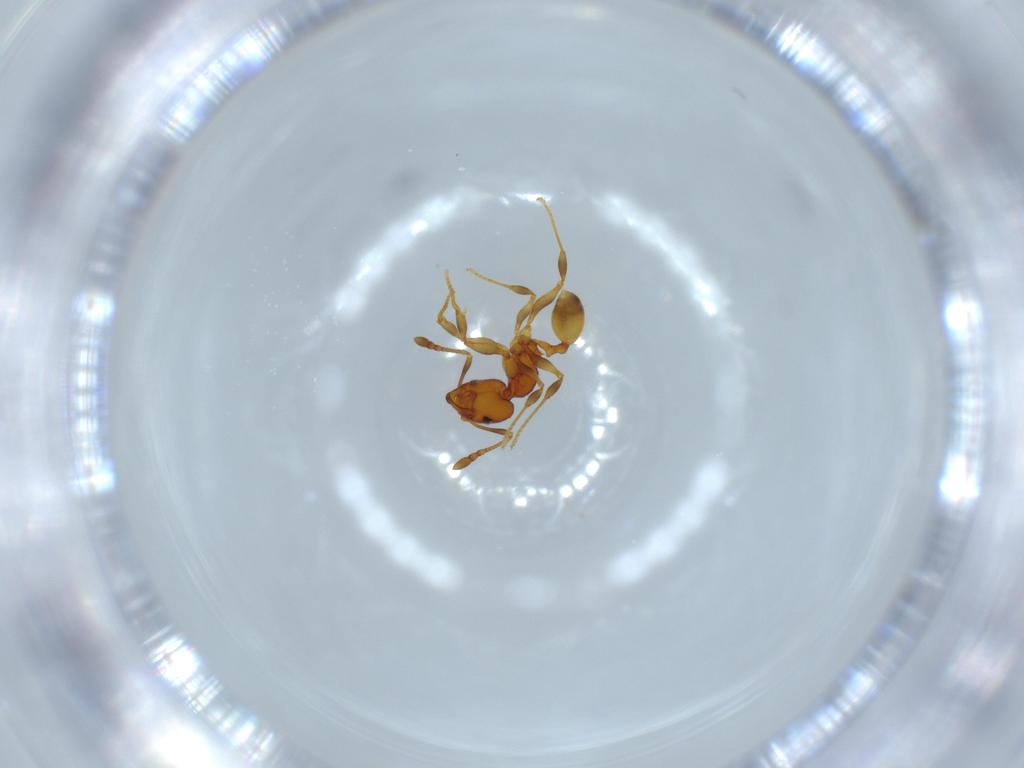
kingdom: Animalia
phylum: Arthropoda
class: Insecta
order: Hymenoptera
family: Formicidae
